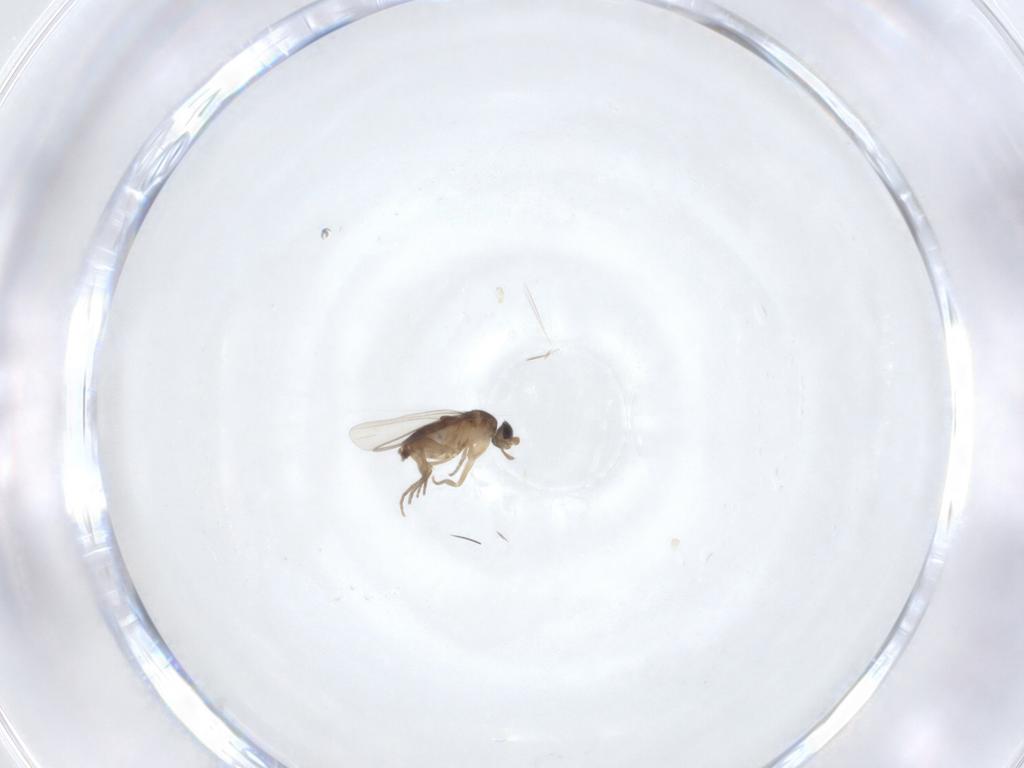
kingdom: Animalia
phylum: Arthropoda
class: Insecta
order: Diptera
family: Phoridae
